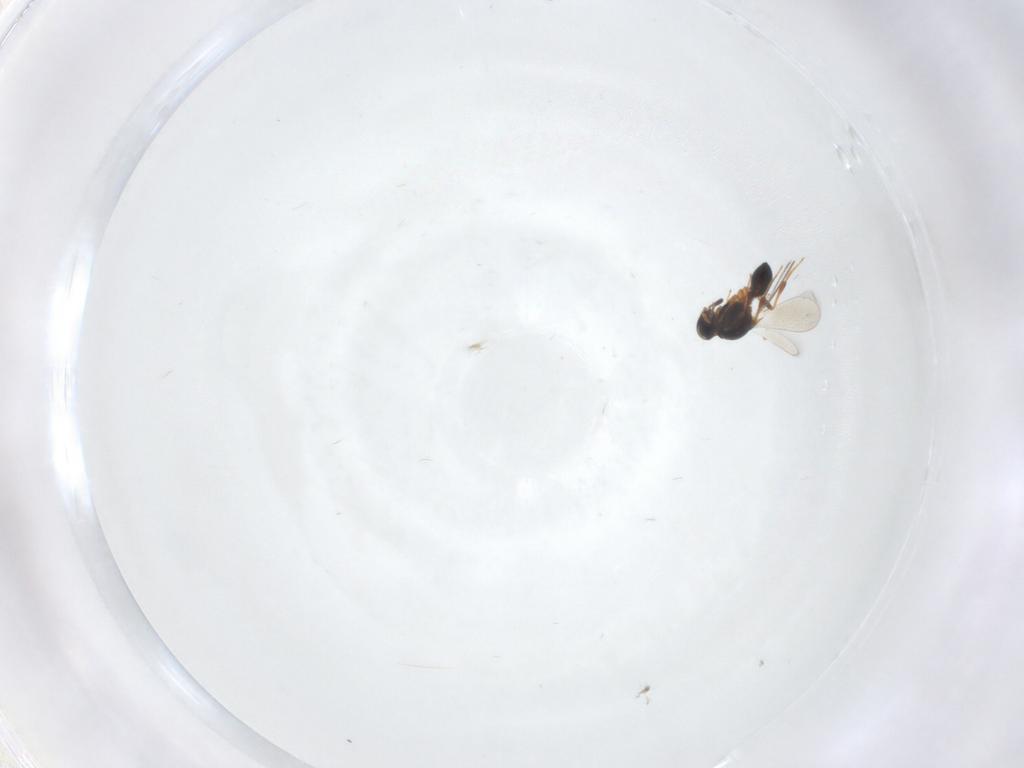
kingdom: Animalia
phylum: Arthropoda
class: Insecta
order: Hymenoptera
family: Platygastridae
